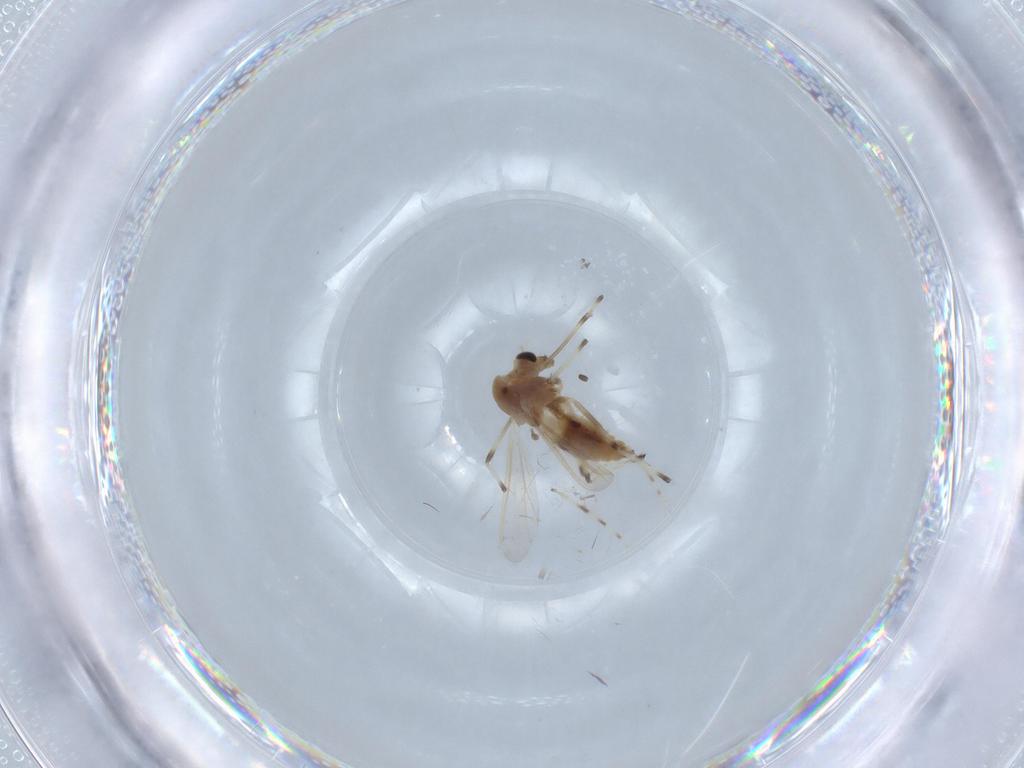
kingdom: Animalia
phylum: Arthropoda
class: Insecta
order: Diptera
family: Chironomidae
